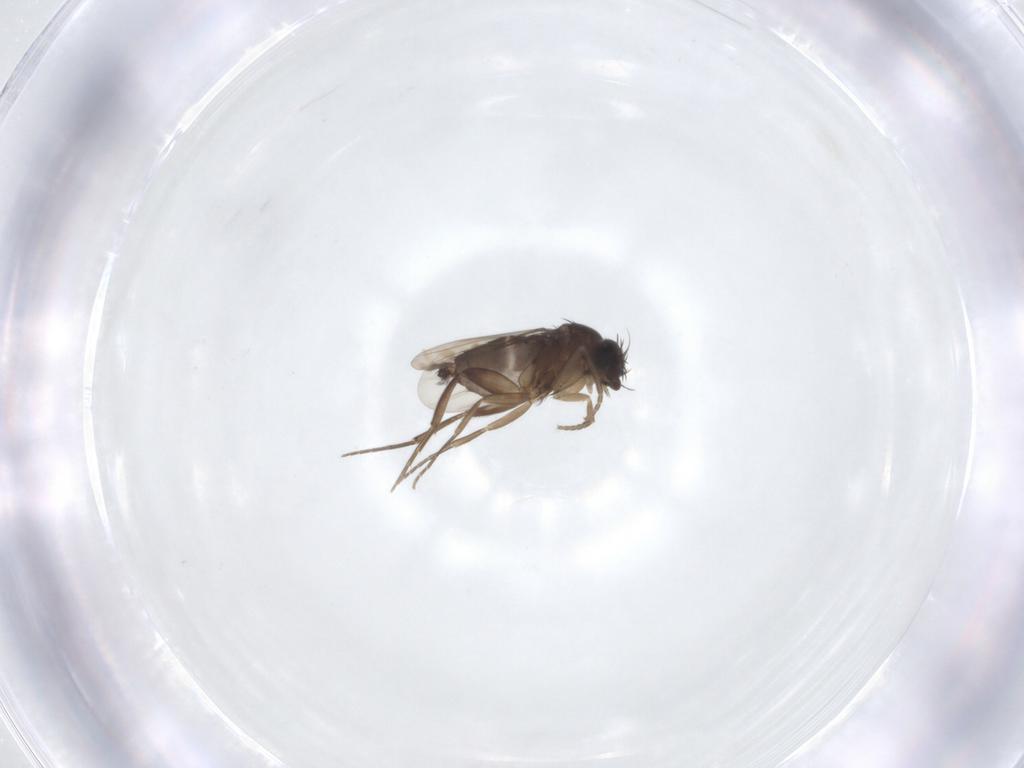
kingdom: Animalia
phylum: Arthropoda
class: Insecta
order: Diptera
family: Phoridae
